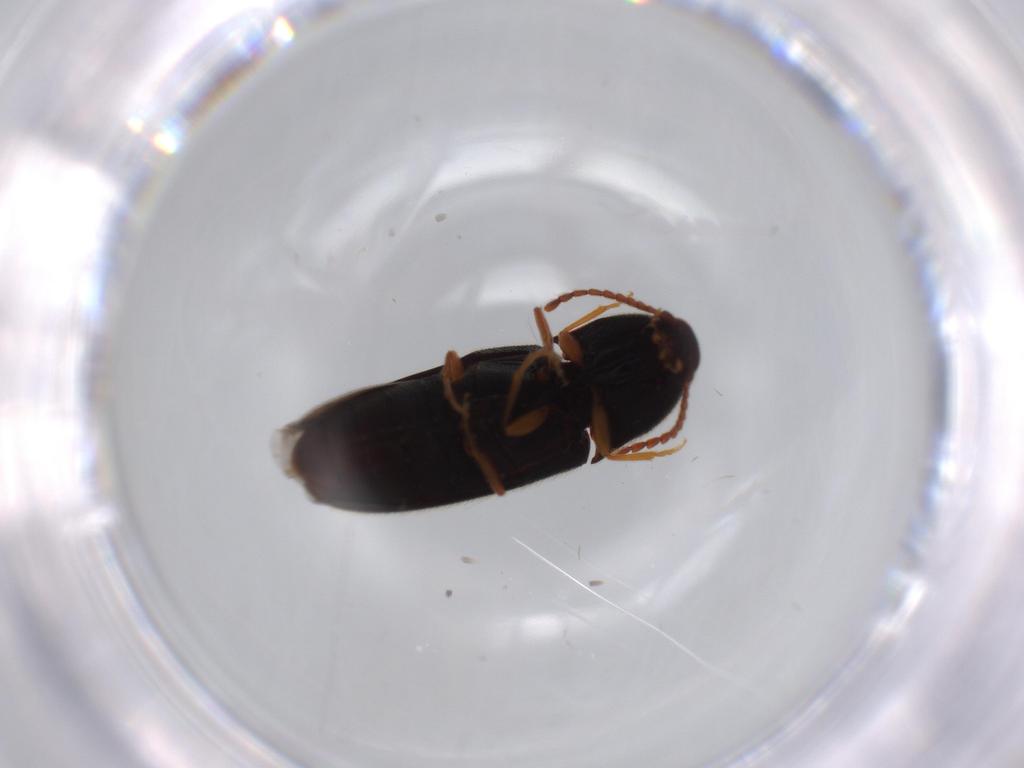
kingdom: Animalia
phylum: Arthropoda
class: Insecta
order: Coleoptera
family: Elateridae
